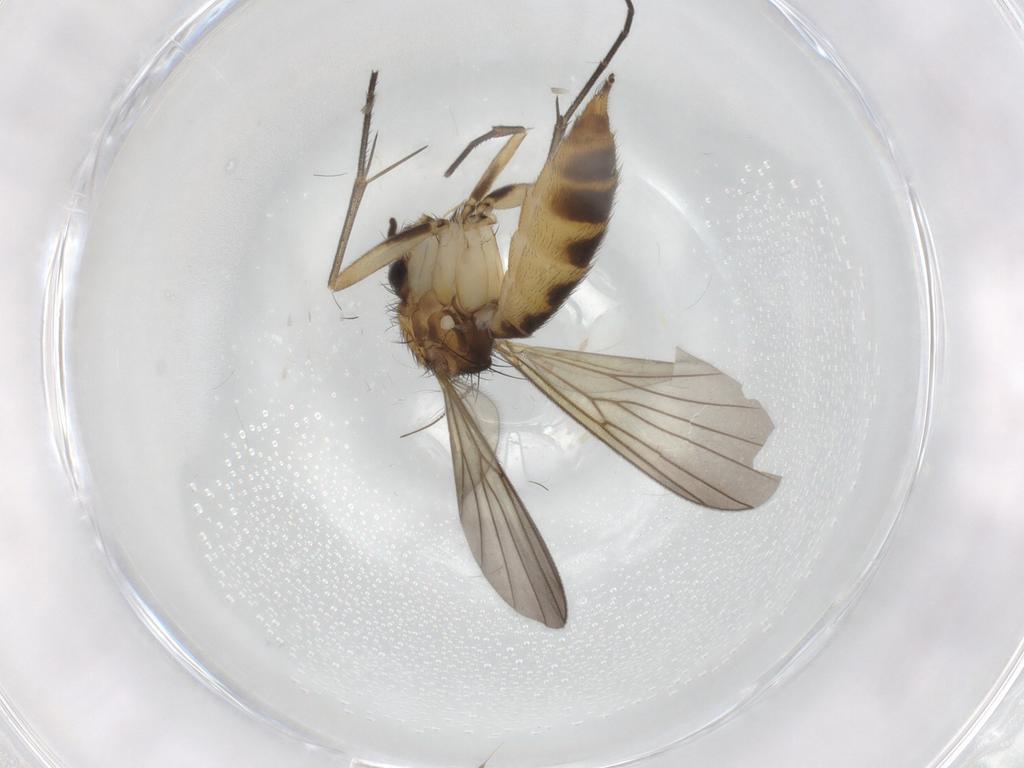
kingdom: Animalia
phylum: Arthropoda
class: Insecta
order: Diptera
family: Mycetophilidae
